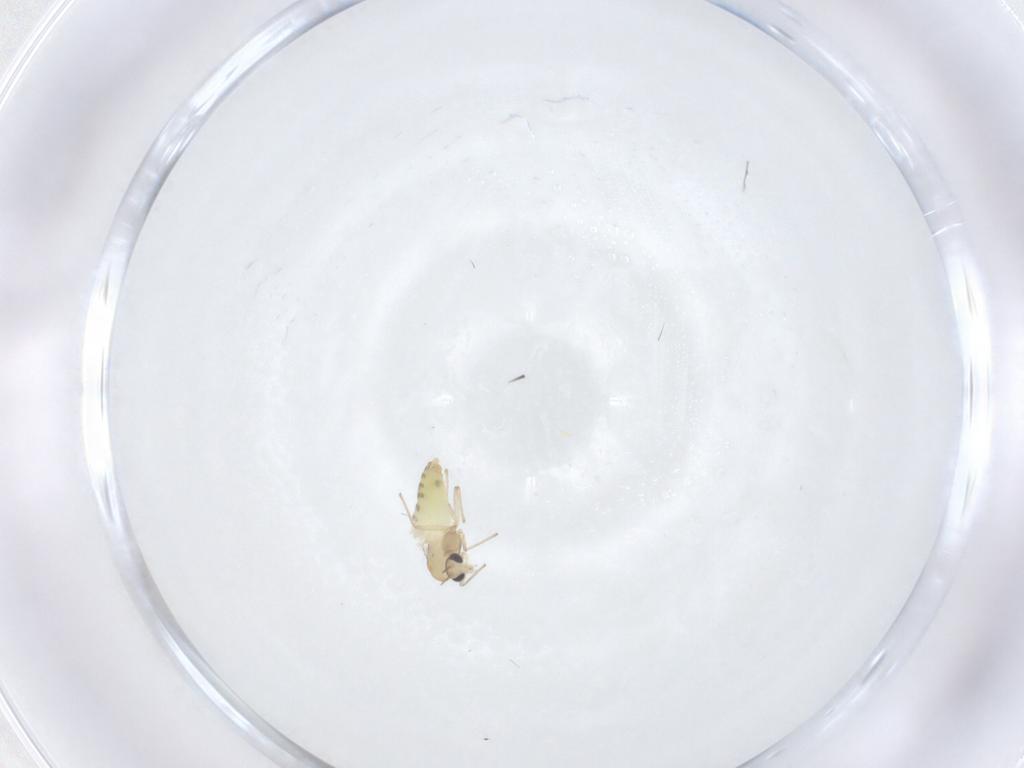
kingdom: Animalia
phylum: Arthropoda
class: Insecta
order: Diptera
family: Chironomidae
